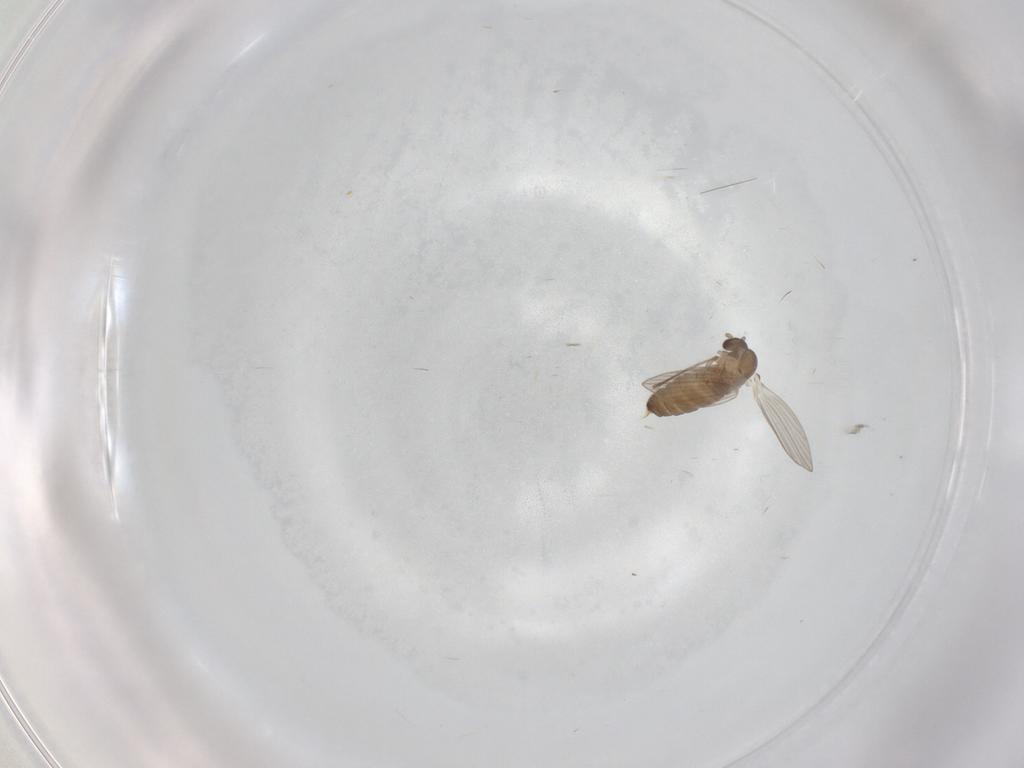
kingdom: Animalia
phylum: Arthropoda
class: Insecta
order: Diptera
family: Psychodidae
